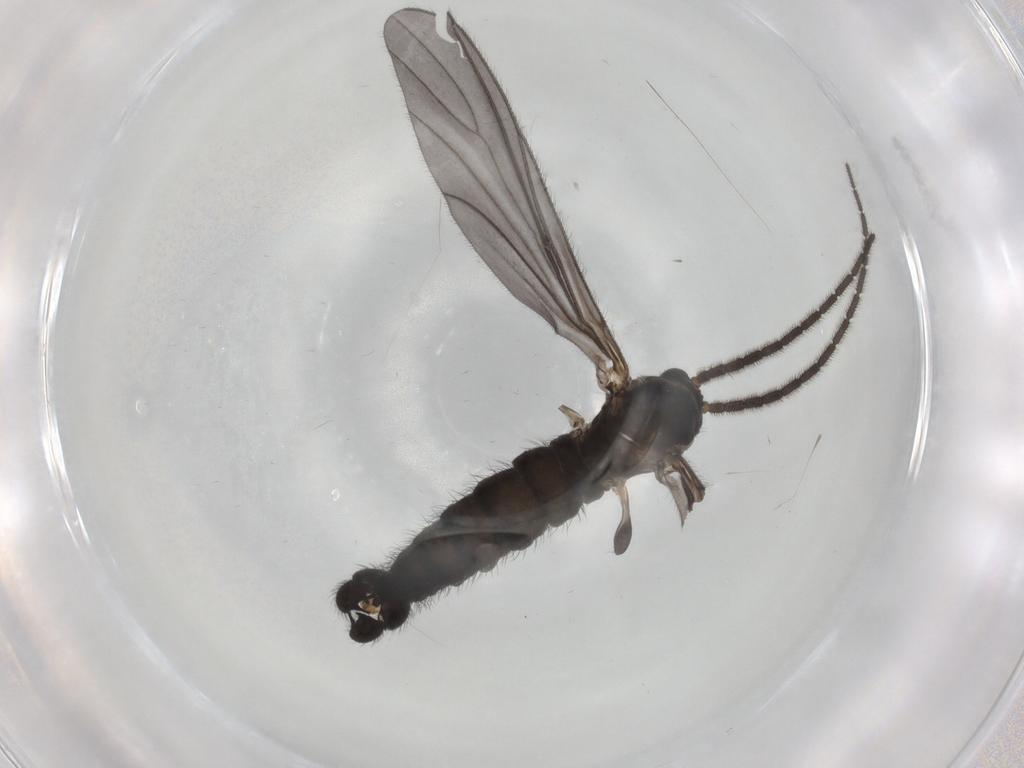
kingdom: Animalia
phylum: Arthropoda
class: Insecta
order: Diptera
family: Sciaridae
